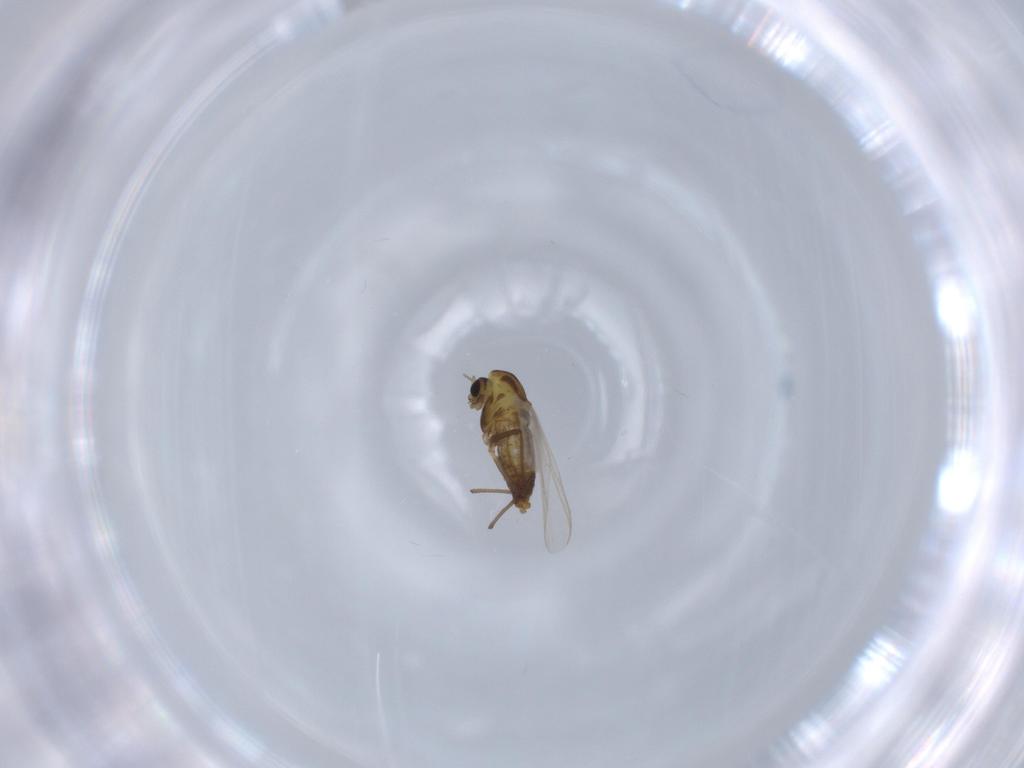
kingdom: Animalia
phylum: Arthropoda
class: Insecta
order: Diptera
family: Chironomidae
